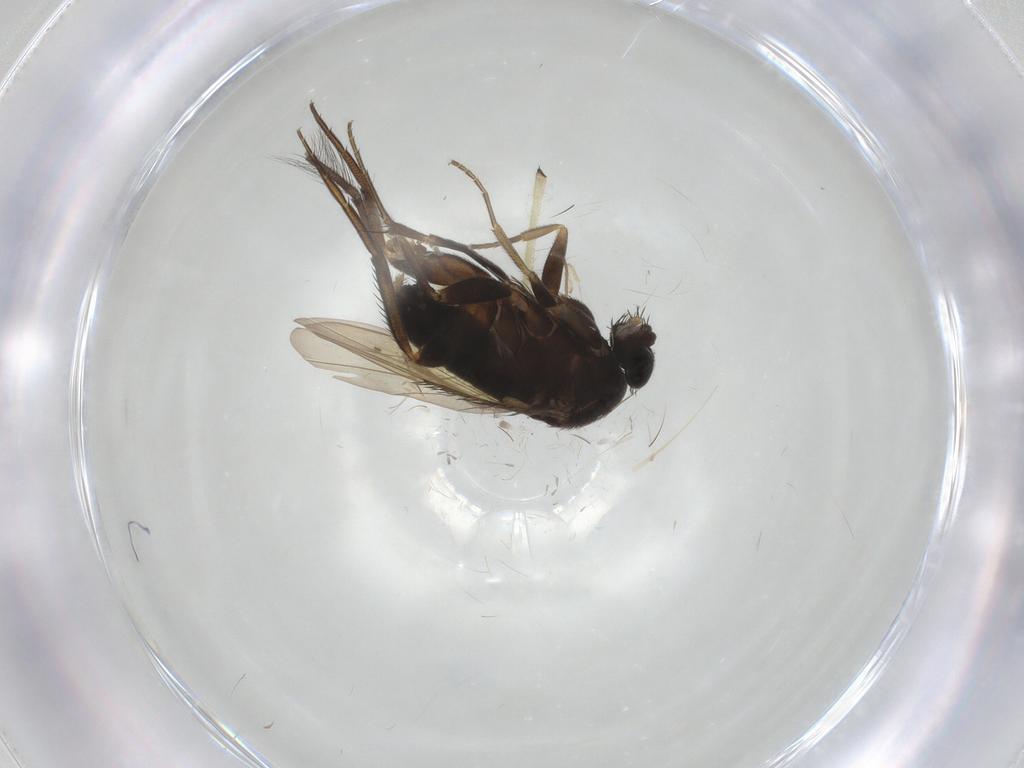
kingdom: Animalia
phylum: Arthropoda
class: Insecta
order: Diptera
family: Phoridae
